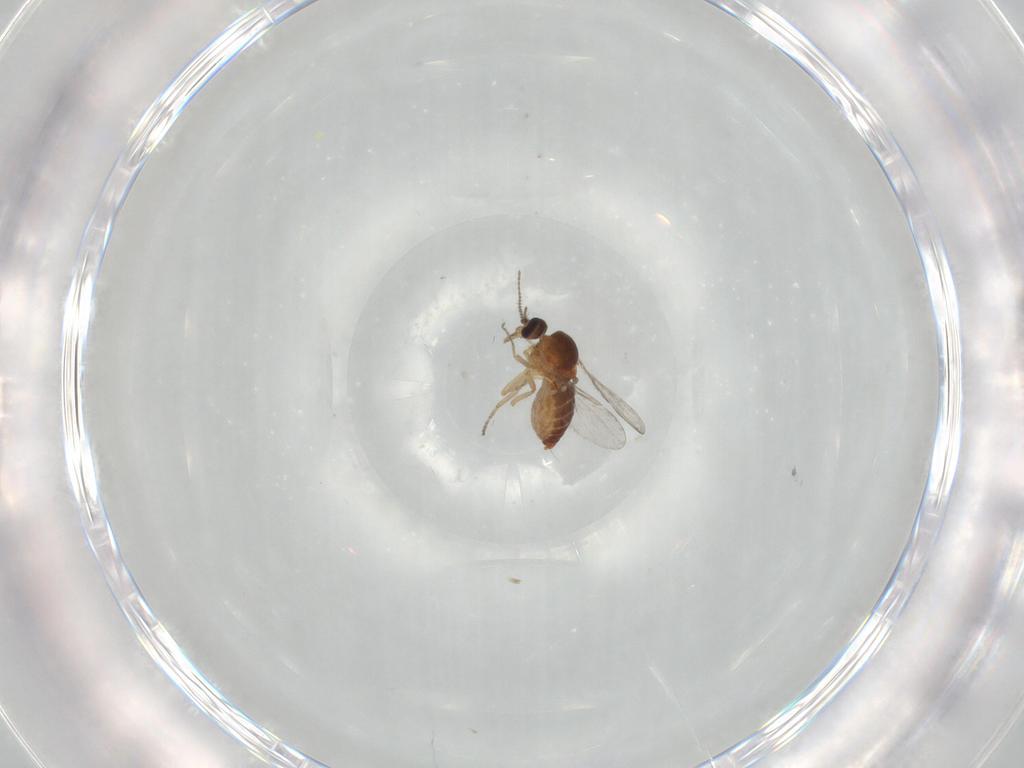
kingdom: Animalia
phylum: Arthropoda
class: Insecta
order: Diptera
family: Ceratopogonidae
